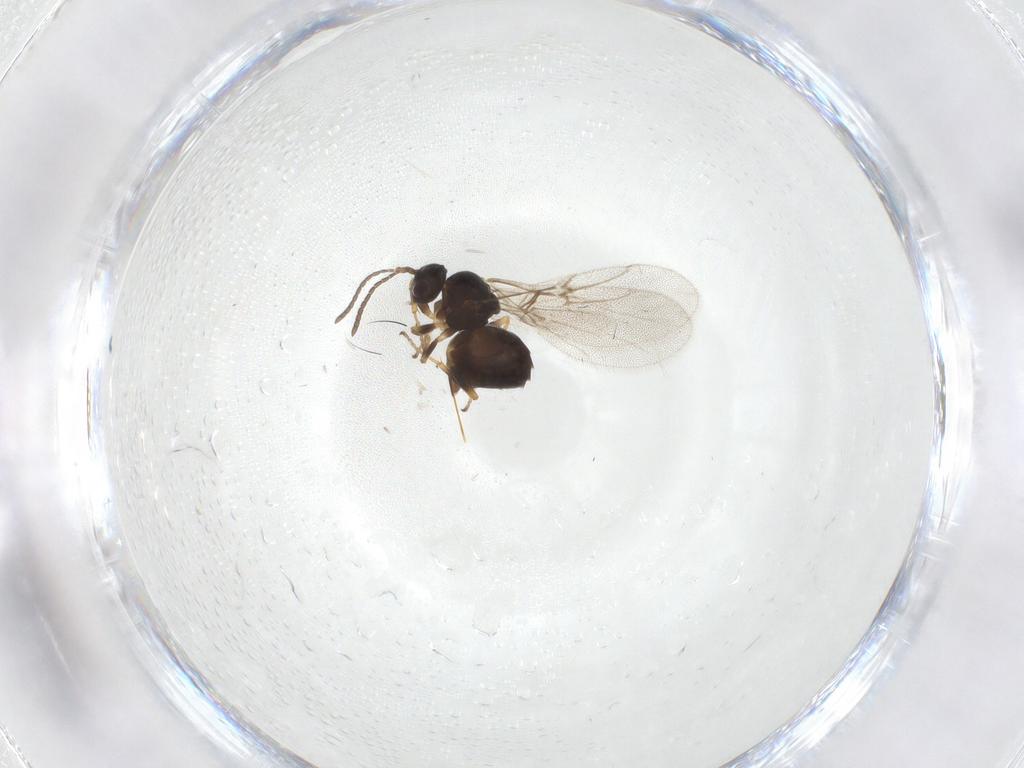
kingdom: Animalia
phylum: Arthropoda
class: Insecta
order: Hymenoptera
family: Cynipidae
